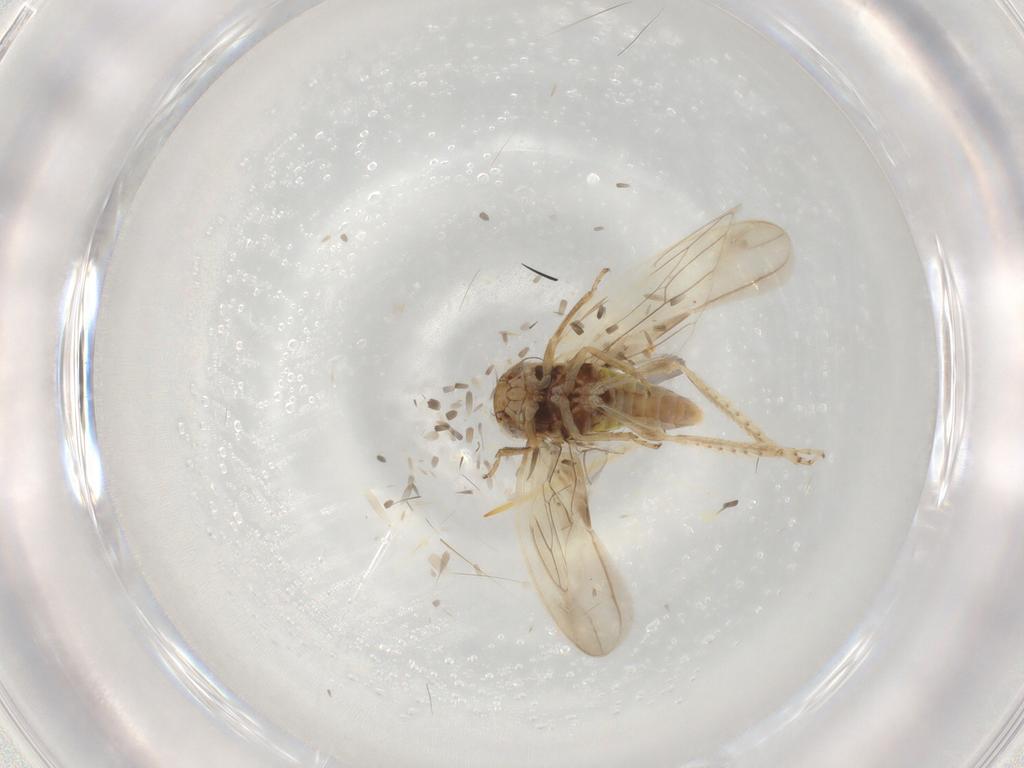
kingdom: Animalia
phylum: Arthropoda
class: Insecta
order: Hemiptera
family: Cicadellidae
